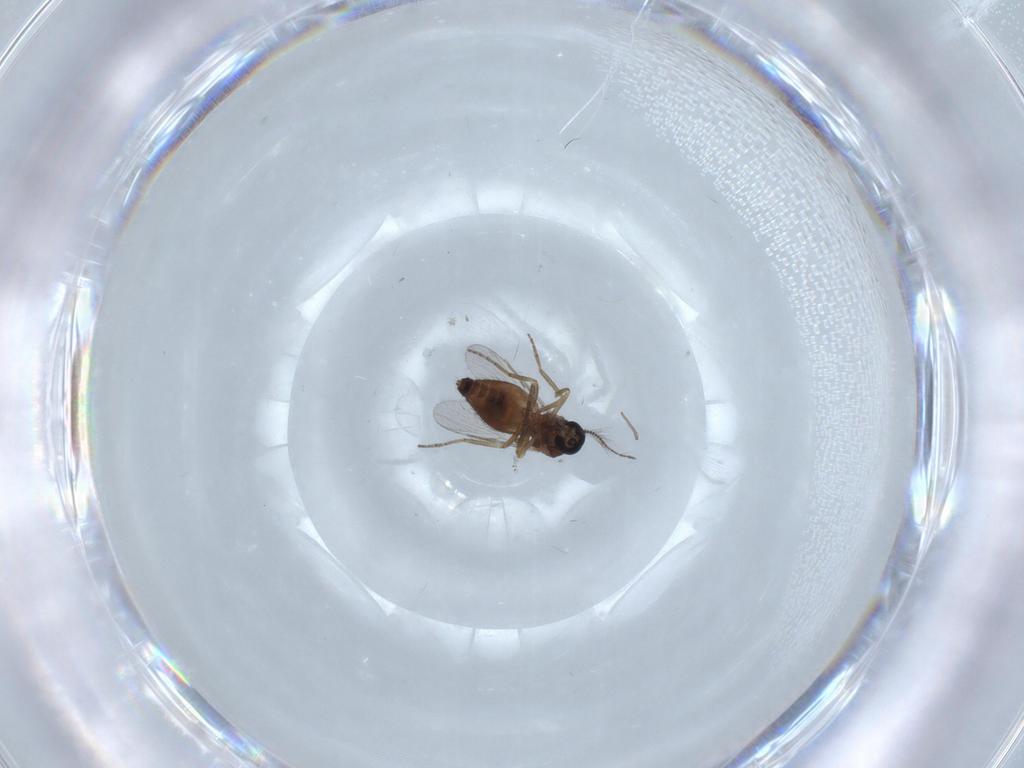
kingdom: Animalia
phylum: Arthropoda
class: Insecta
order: Diptera
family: Chironomidae
